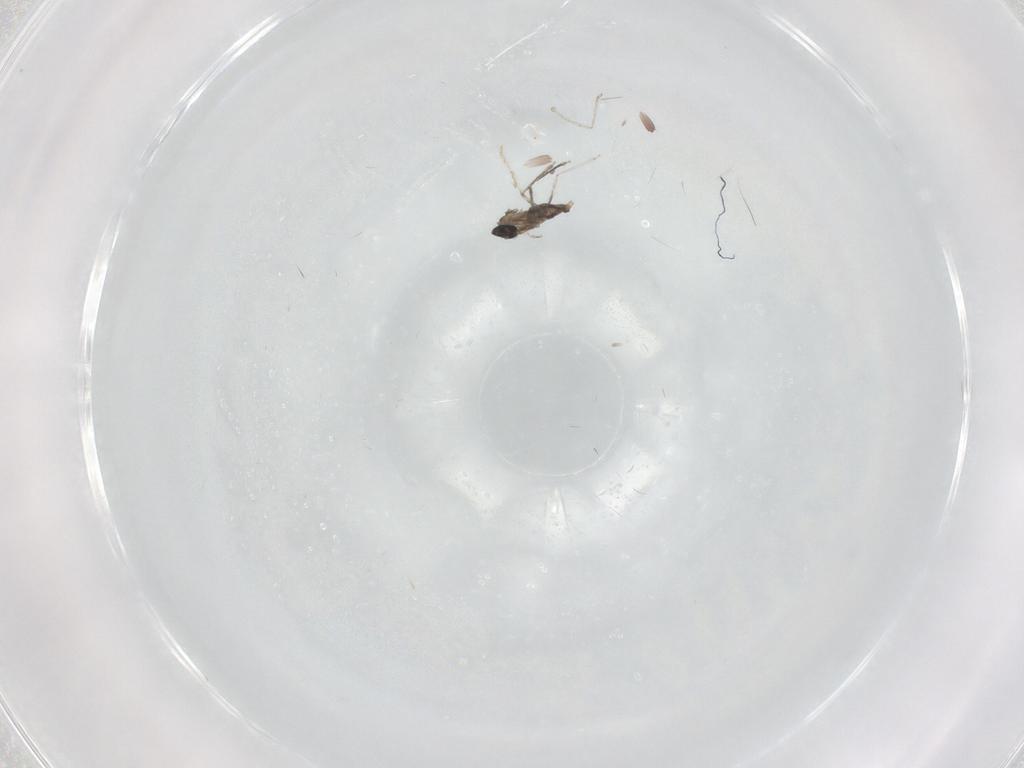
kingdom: Animalia
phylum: Arthropoda
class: Insecta
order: Diptera
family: Cecidomyiidae
